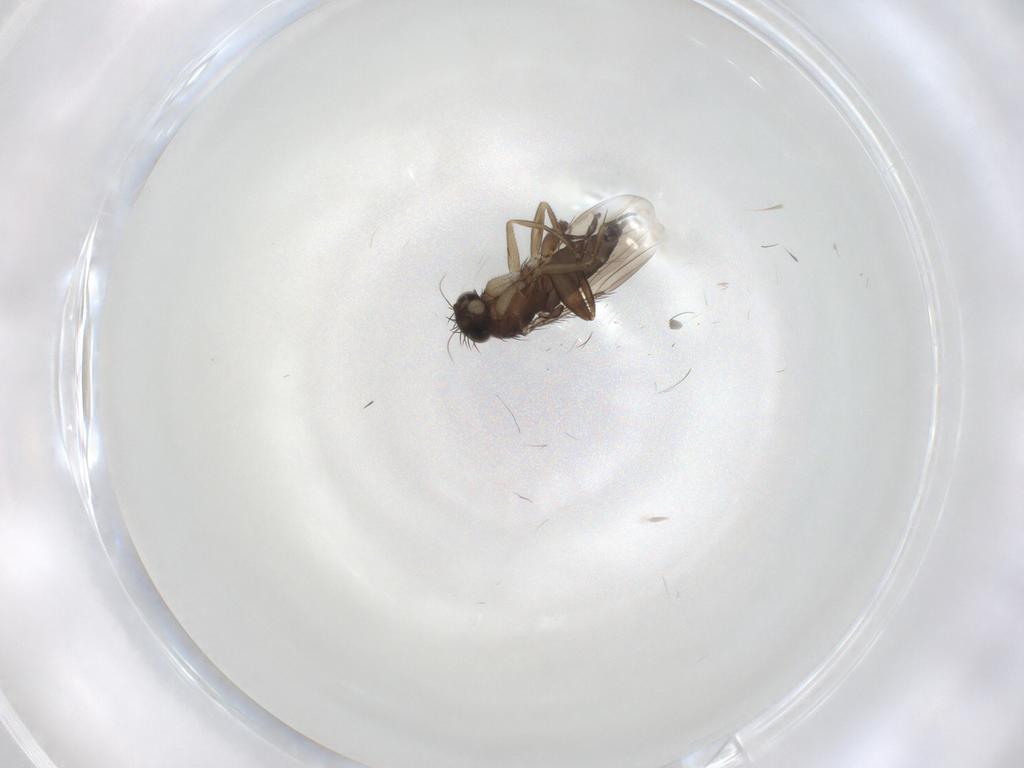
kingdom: Animalia
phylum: Arthropoda
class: Insecta
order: Diptera
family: Phoridae
